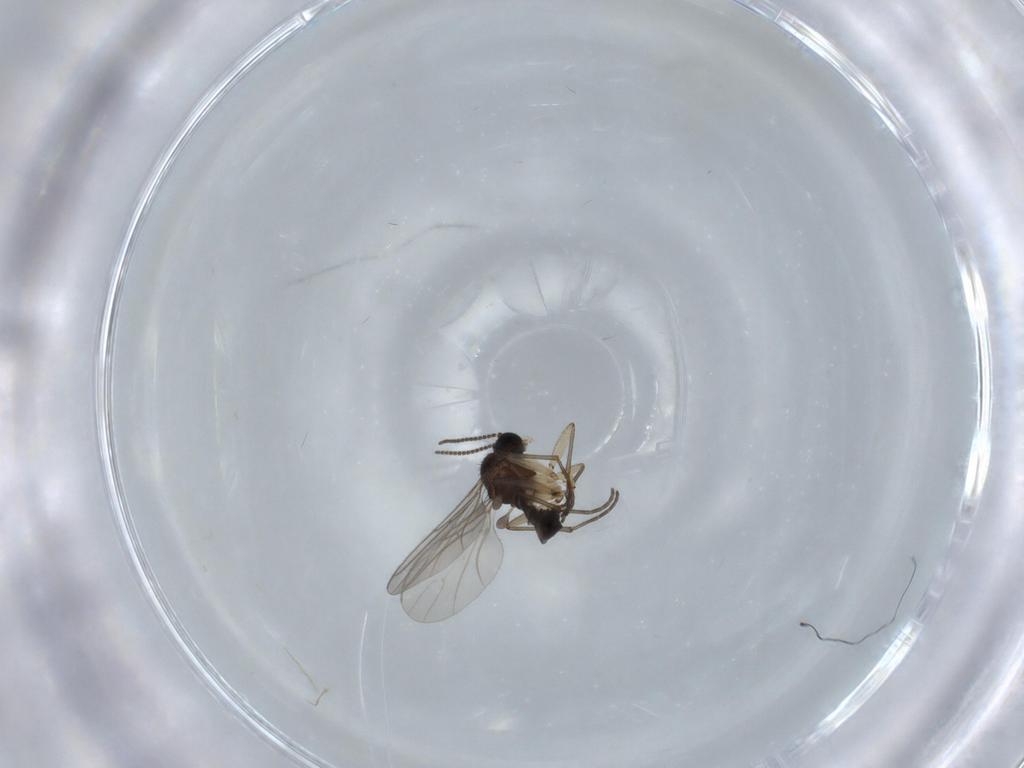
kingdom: Animalia
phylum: Arthropoda
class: Insecta
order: Diptera
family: Sciaridae
